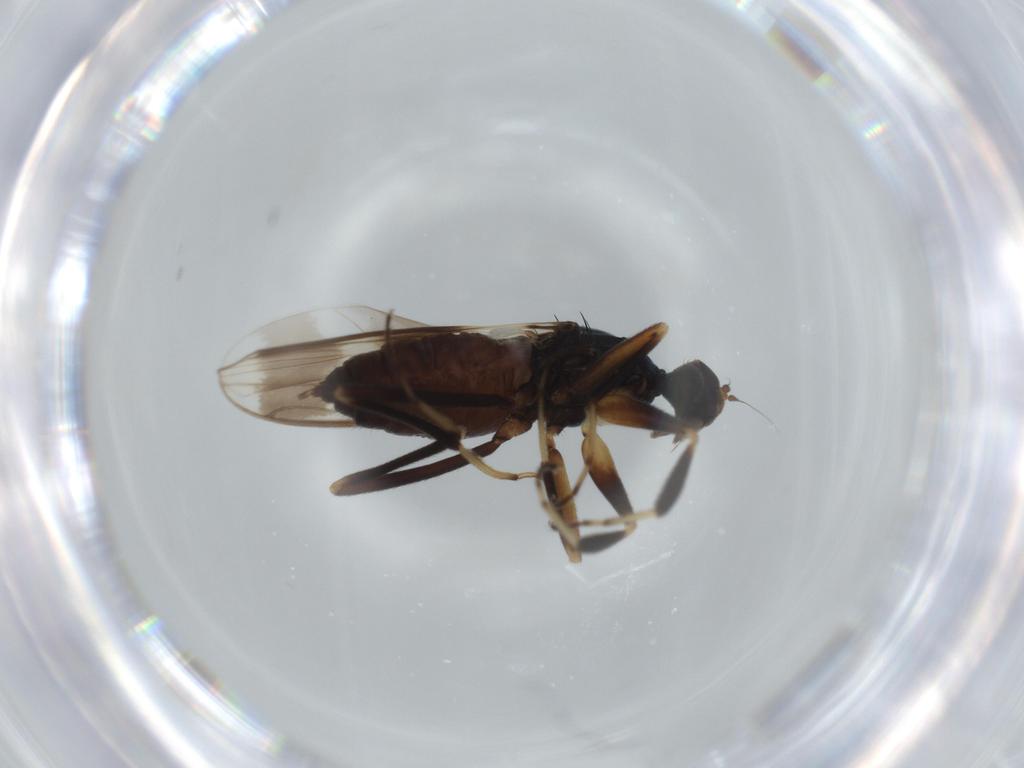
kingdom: Animalia
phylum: Arthropoda
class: Insecta
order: Diptera
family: Hybotidae
